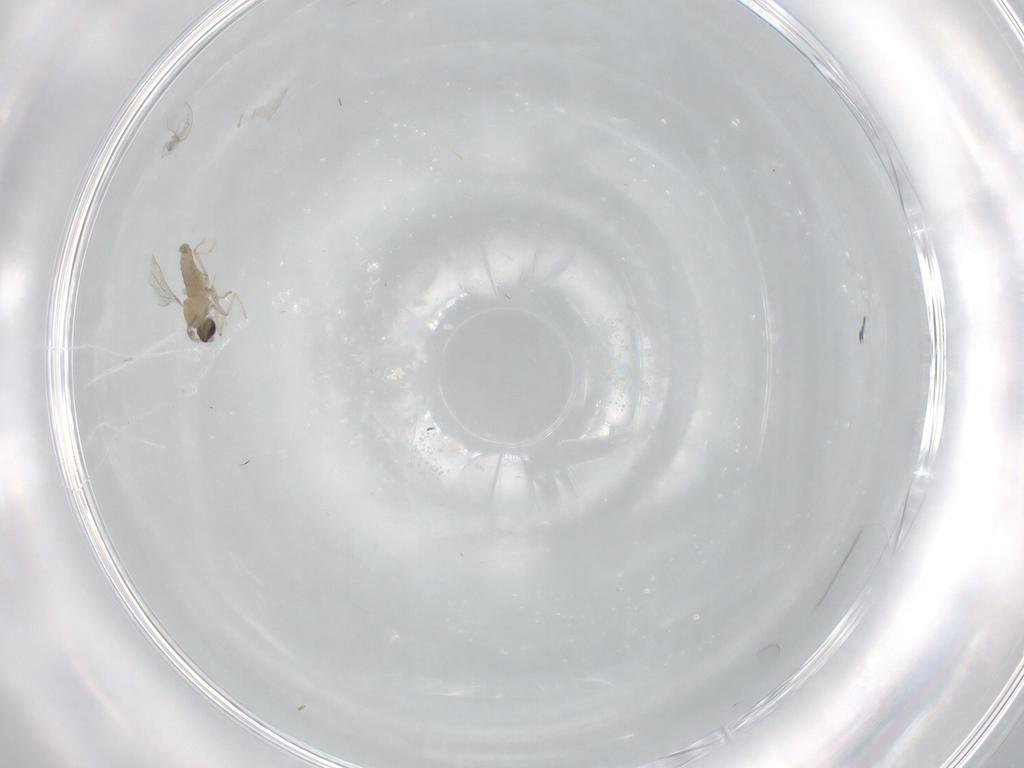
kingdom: Animalia
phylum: Arthropoda
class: Insecta
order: Diptera
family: Cecidomyiidae
